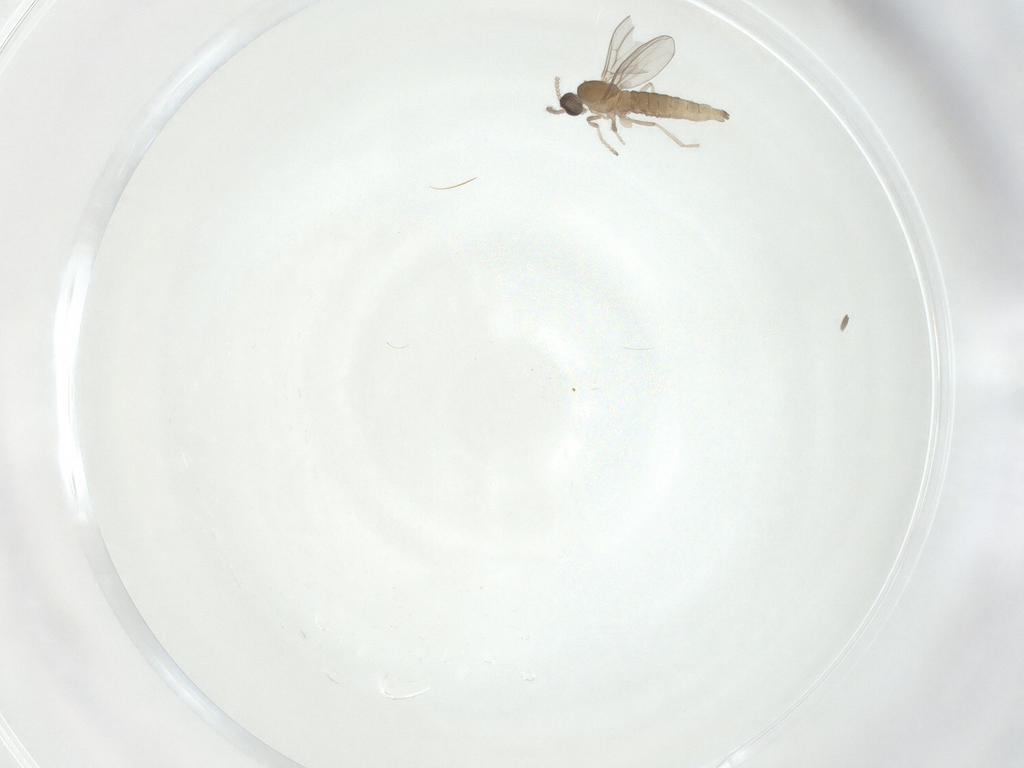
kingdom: Animalia
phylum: Arthropoda
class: Insecta
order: Diptera
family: Cecidomyiidae
